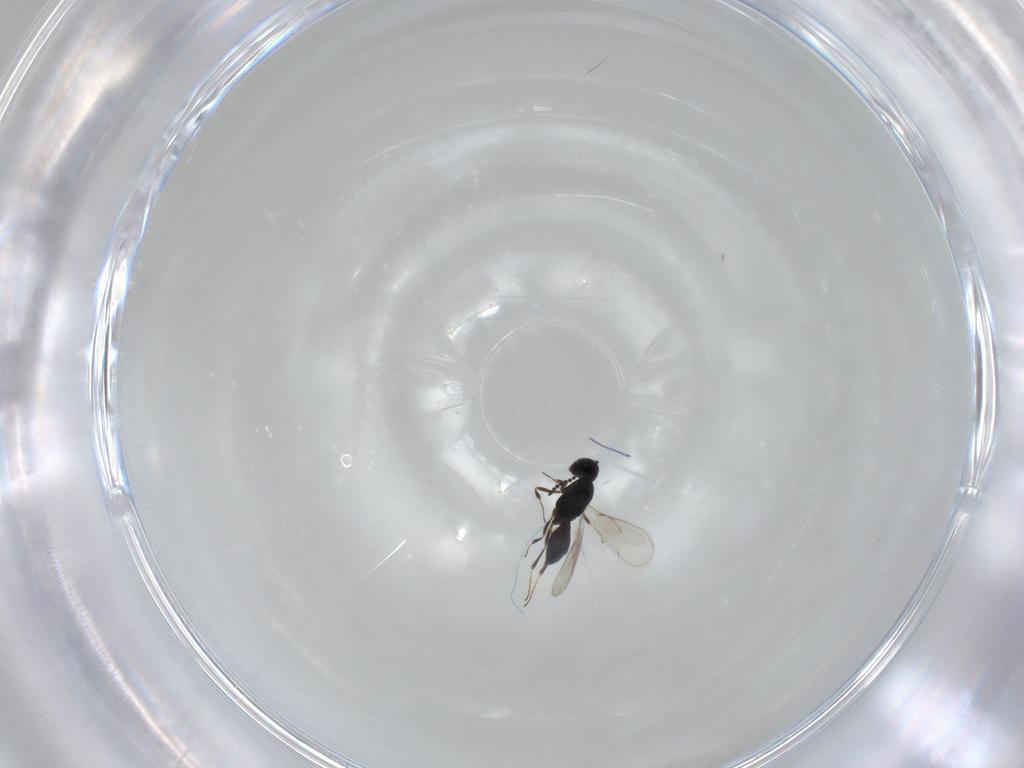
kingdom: Animalia
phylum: Arthropoda
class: Insecta
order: Hymenoptera
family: Scelionidae
